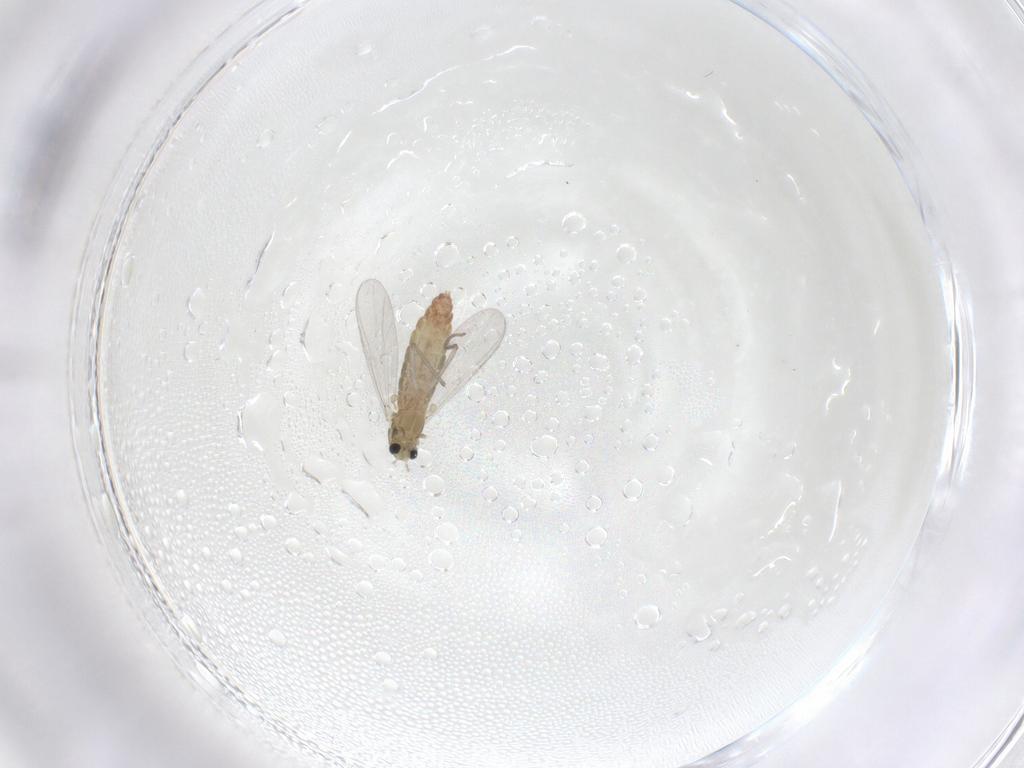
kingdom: Animalia
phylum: Arthropoda
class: Insecta
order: Diptera
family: Chironomidae
